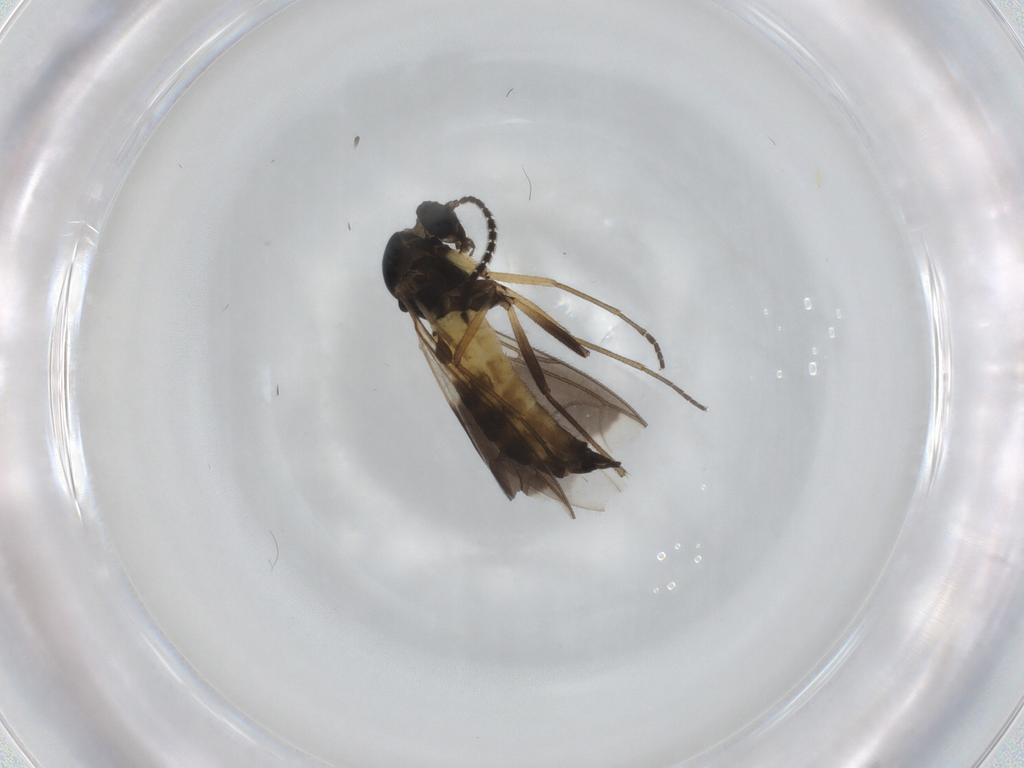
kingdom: Animalia
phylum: Arthropoda
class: Insecta
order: Diptera
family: Sciaridae
